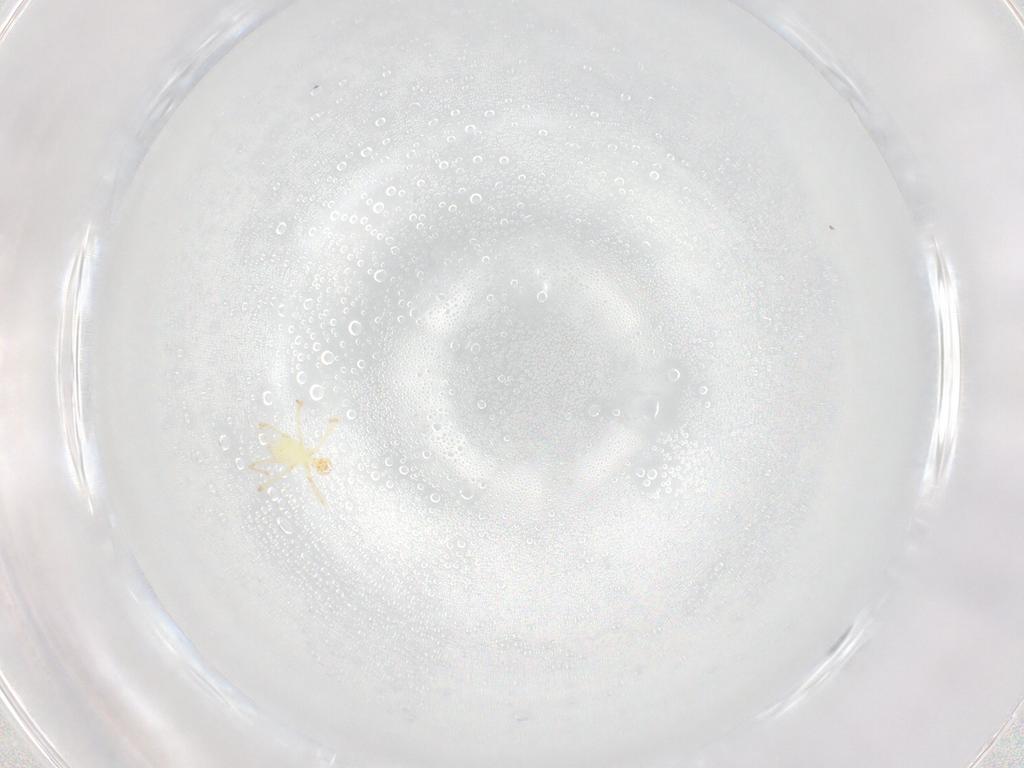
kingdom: Animalia
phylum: Arthropoda
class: Arachnida
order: Trombidiformes
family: Erythraeidae
